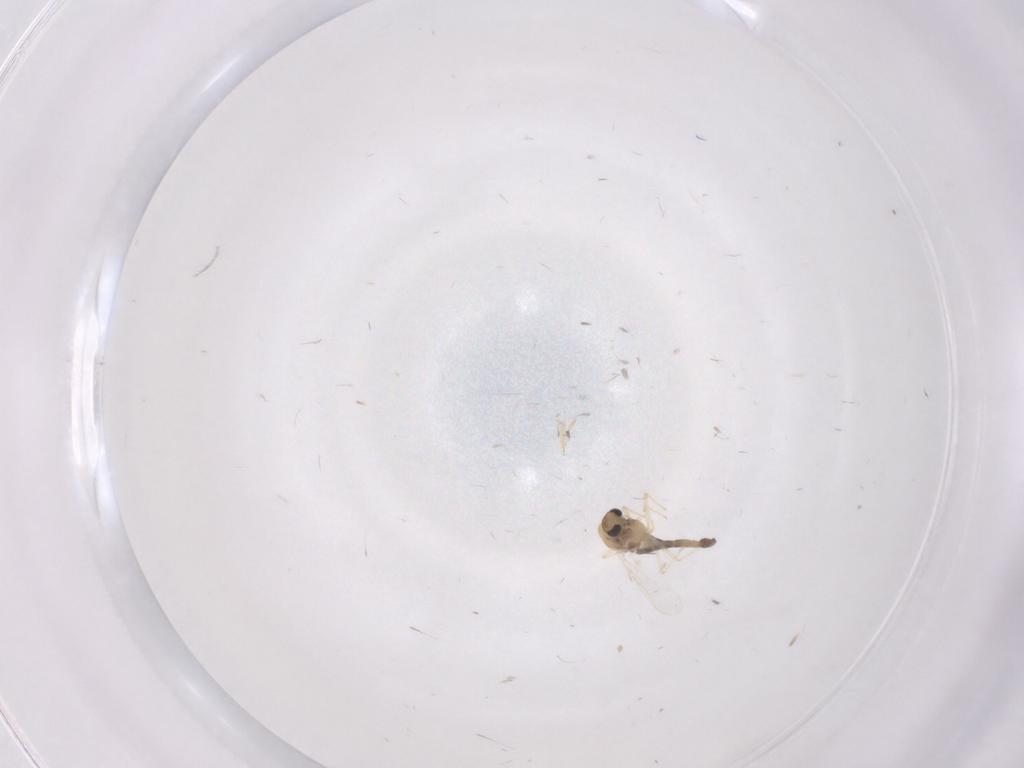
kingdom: Animalia
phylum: Arthropoda
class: Insecta
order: Diptera
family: Chironomidae
